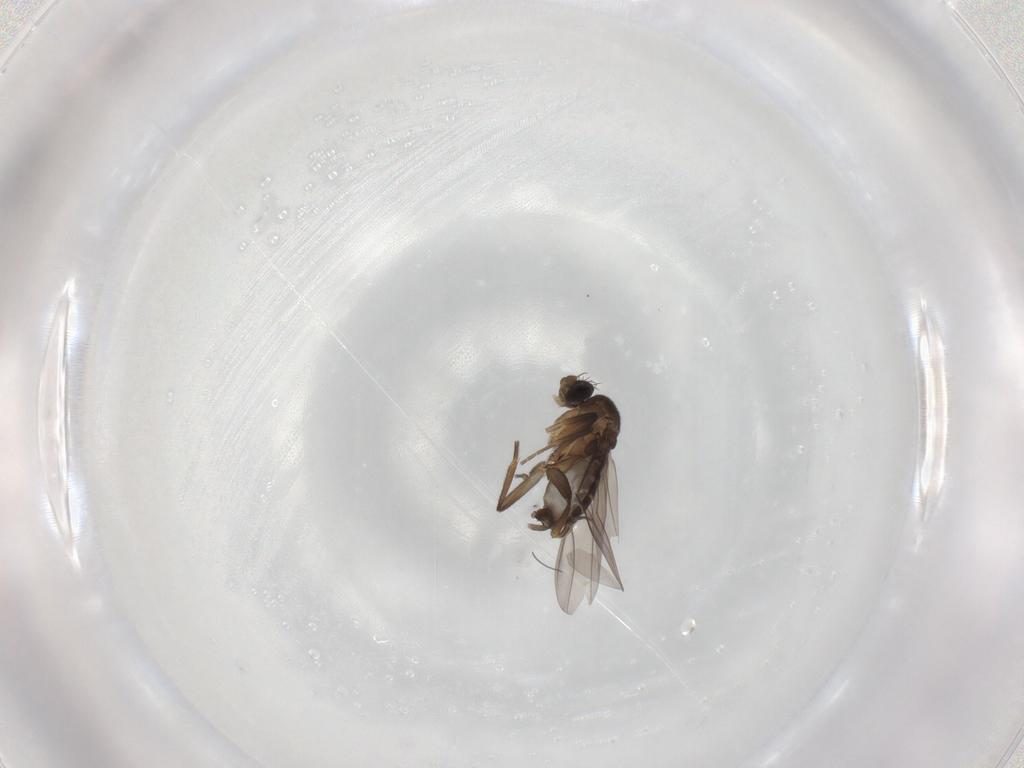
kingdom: Animalia
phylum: Arthropoda
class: Insecta
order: Diptera
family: Phoridae
